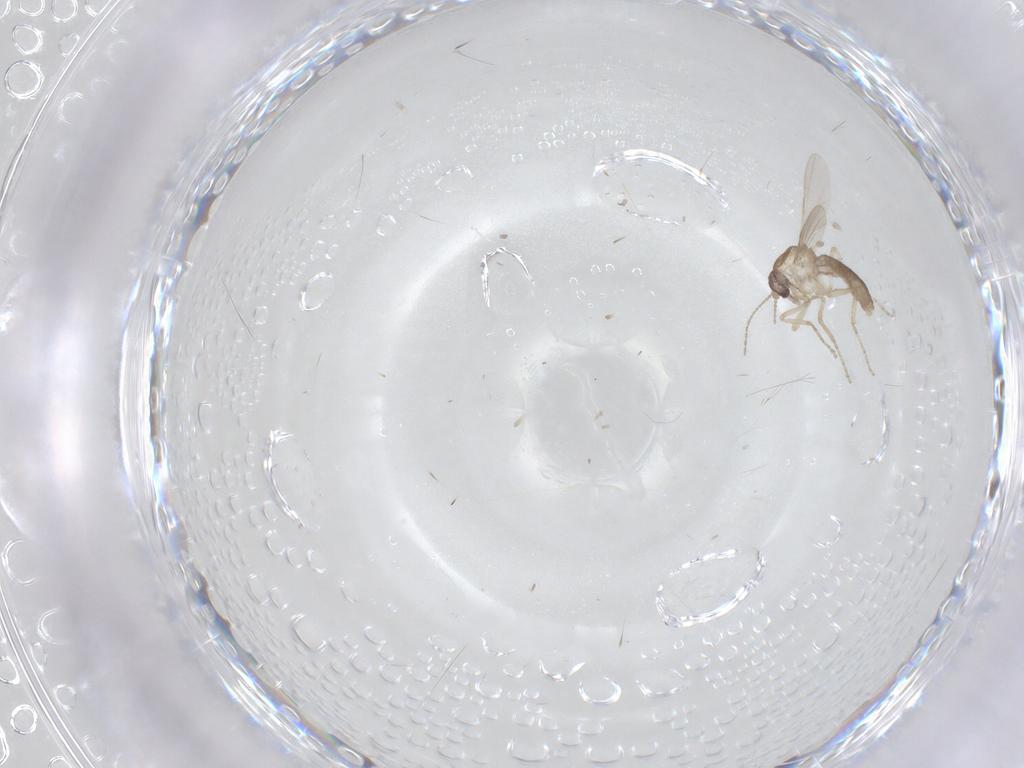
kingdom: Animalia
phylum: Arthropoda
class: Insecta
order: Diptera
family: Ceratopogonidae
